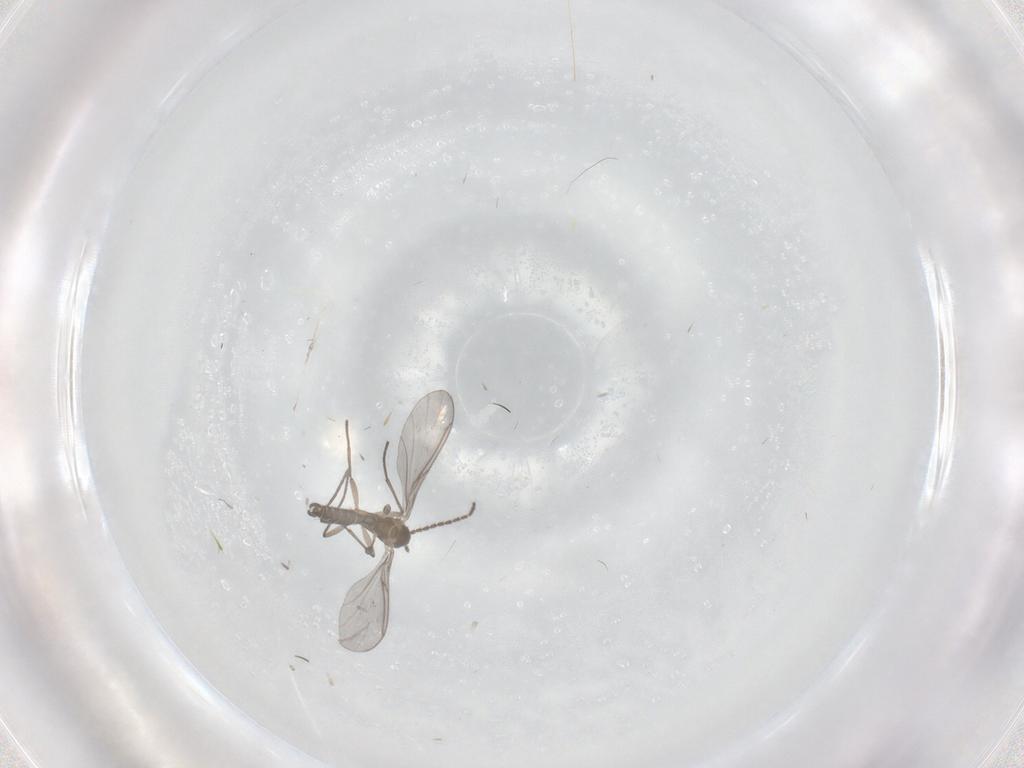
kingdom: Animalia
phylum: Arthropoda
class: Insecta
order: Diptera
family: Sciaridae
